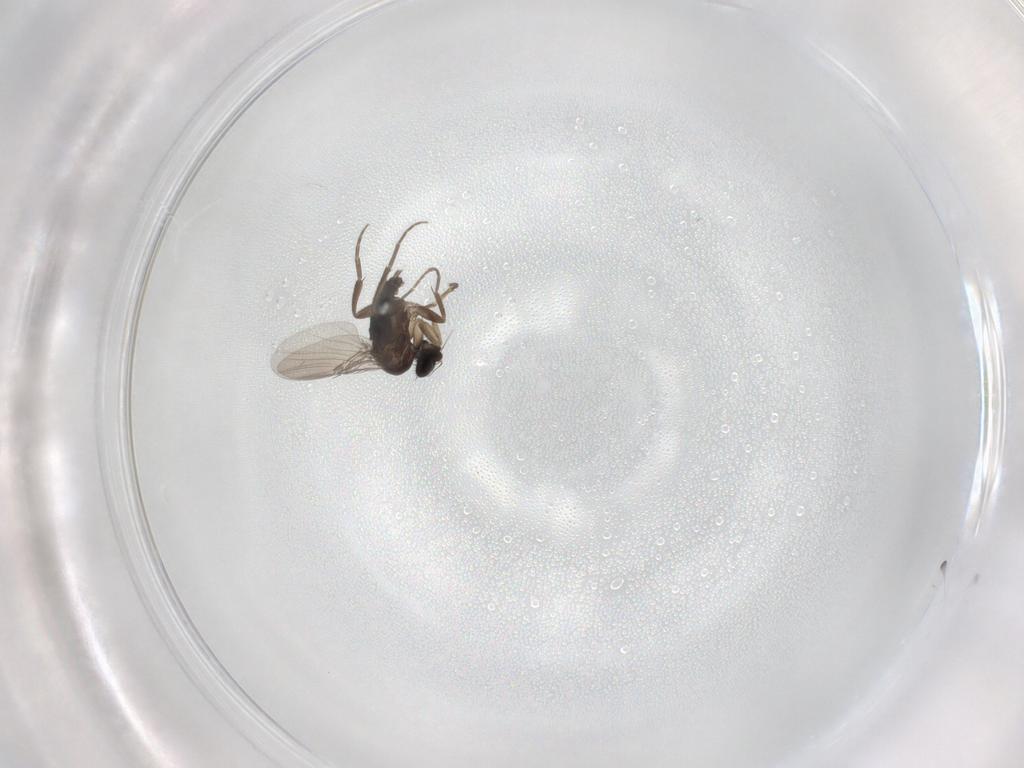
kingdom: Animalia
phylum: Arthropoda
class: Insecta
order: Diptera
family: Phoridae
